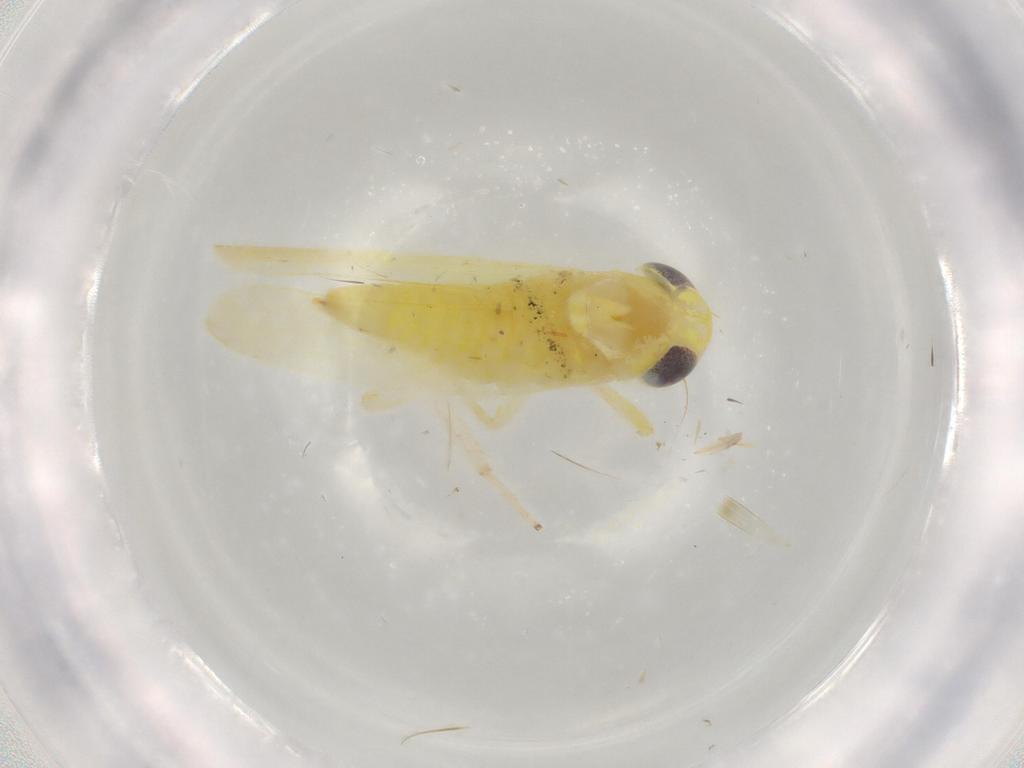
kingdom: Animalia
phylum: Arthropoda
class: Insecta
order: Hemiptera
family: Cicadellidae
